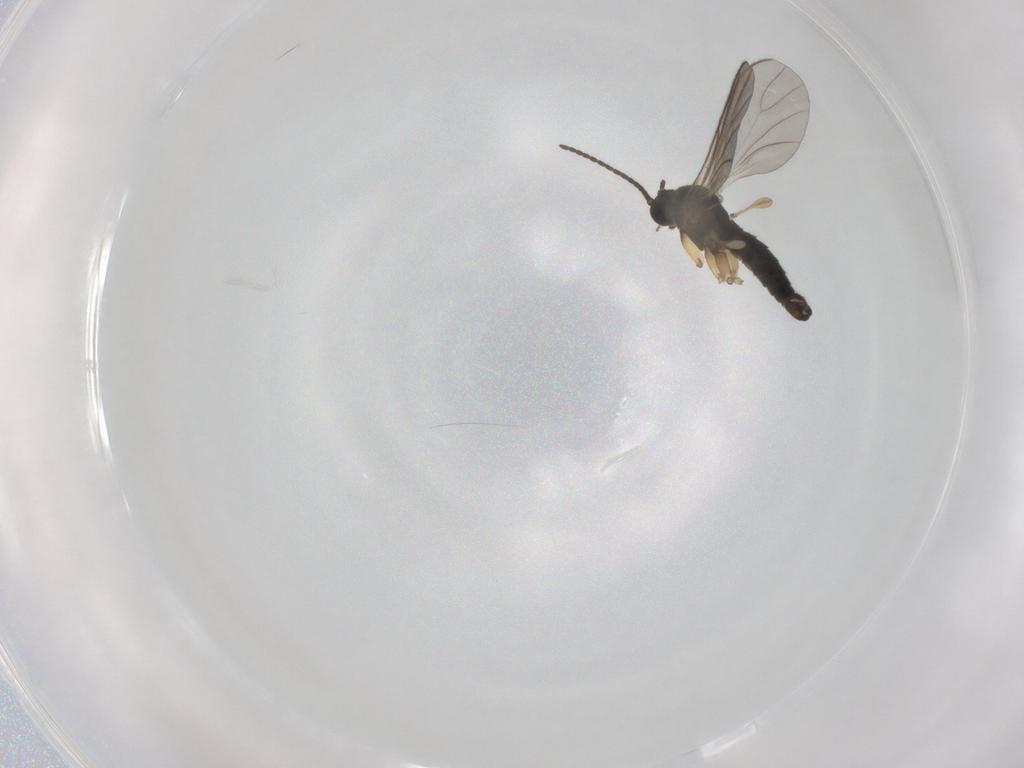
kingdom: Animalia
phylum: Arthropoda
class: Insecta
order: Diptera
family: Sciaridae
